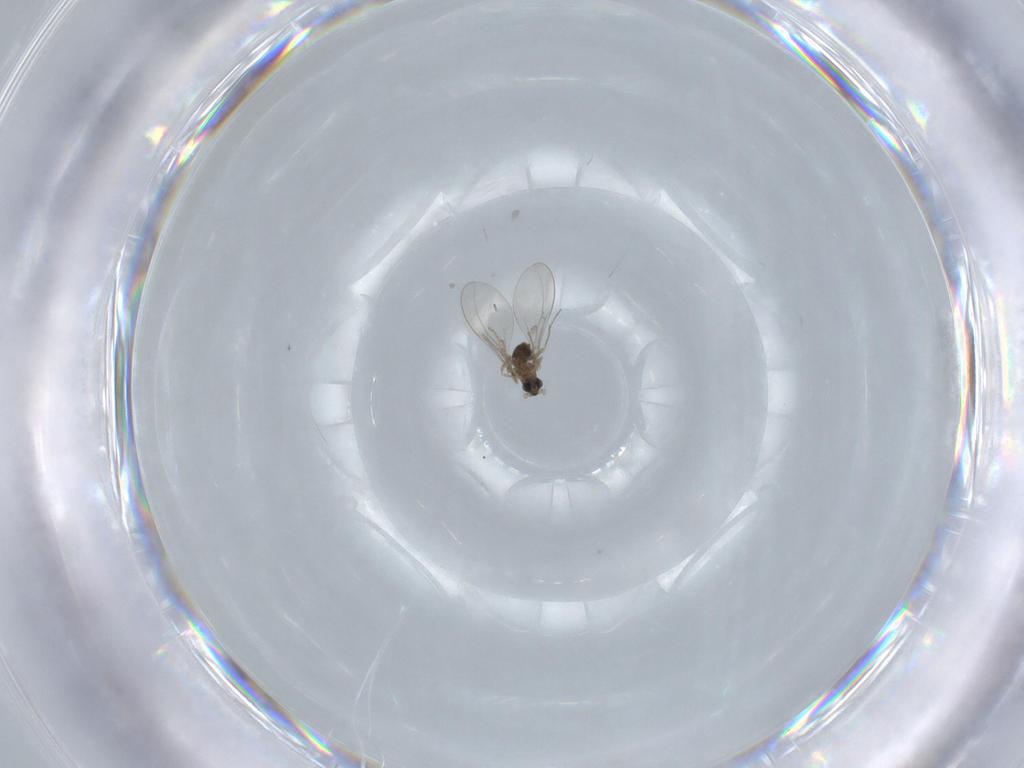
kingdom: Animalia
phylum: Arthropoda
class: Insecta
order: Diptera
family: Cecidomyiidae
